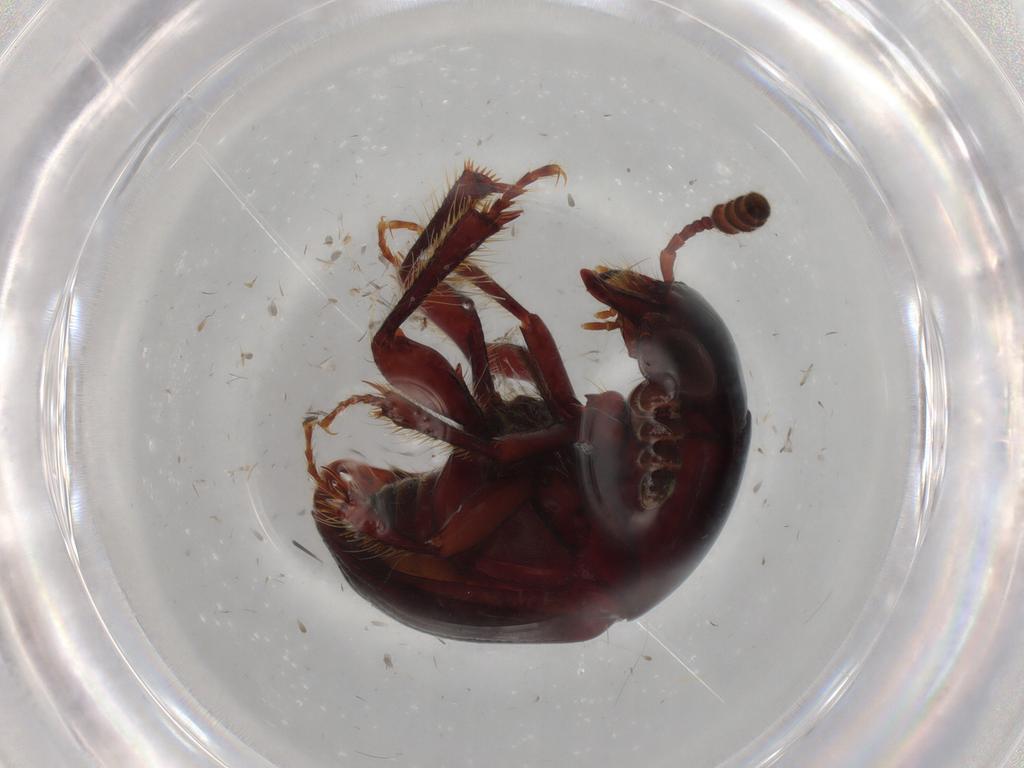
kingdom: Animalia
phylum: Arthropoda
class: Insecta
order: Coleoptera
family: Leiodidae
